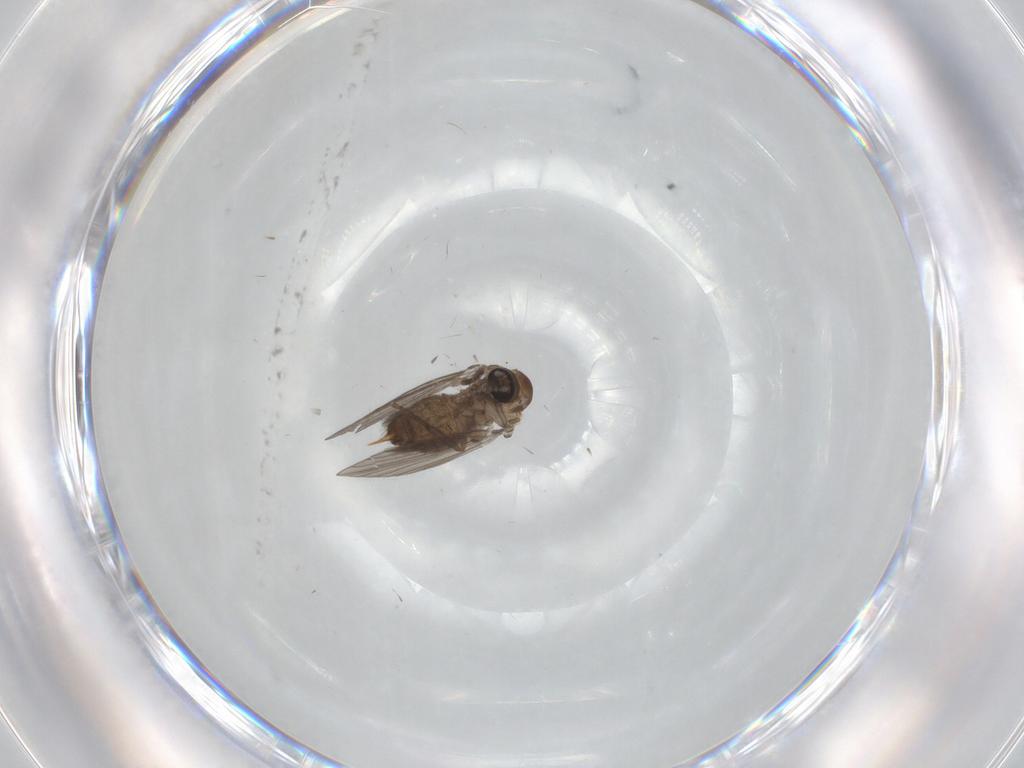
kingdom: Animalia
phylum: Arthropoda
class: Insecta
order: Diptera
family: Psychodidae
